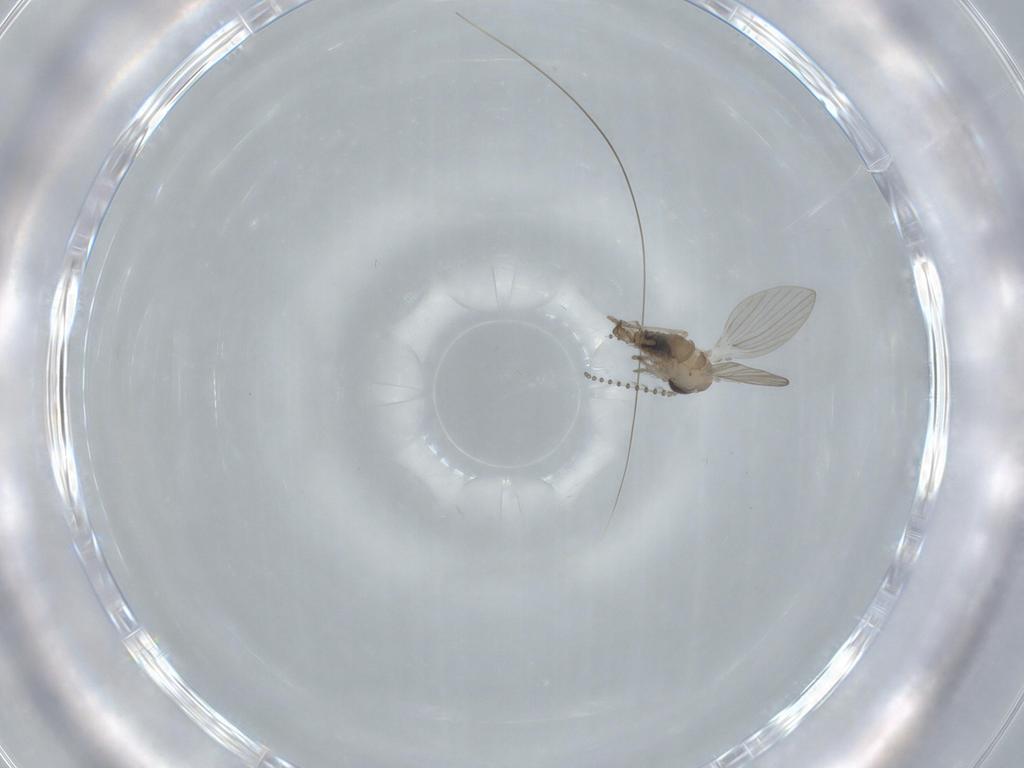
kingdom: Animalia
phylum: Arthropoda
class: Insecta
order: Diptera
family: Psychodidae
